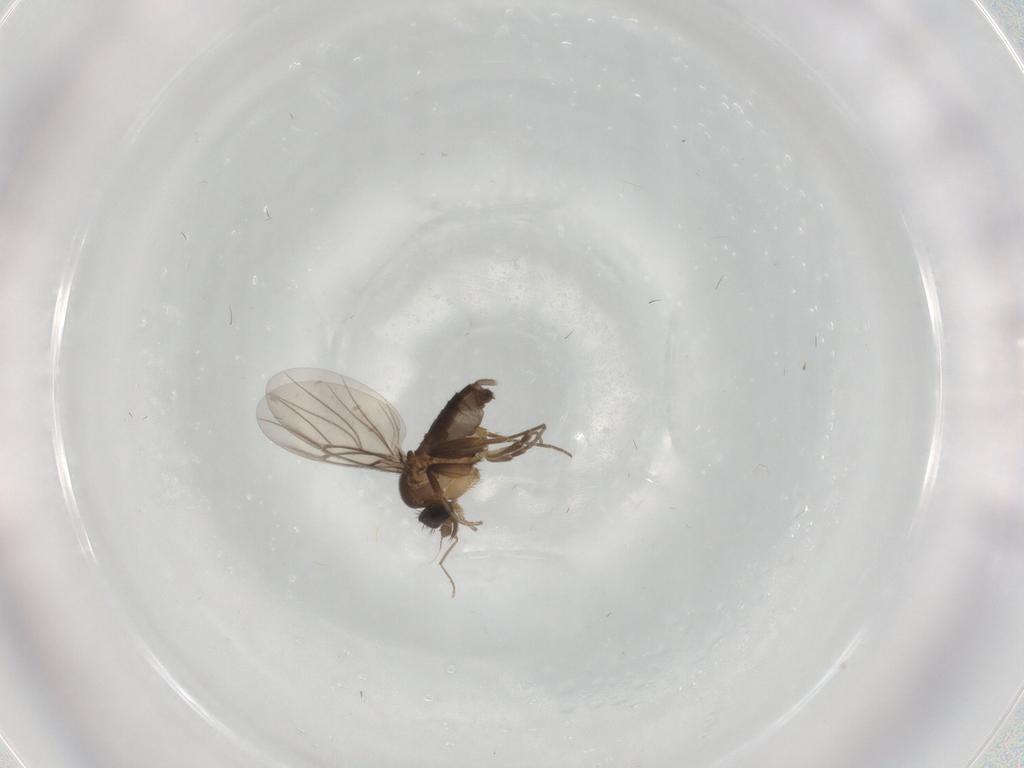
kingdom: Animalia
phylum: Arthropoda
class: Insecta
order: Diptera
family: Phoridae
